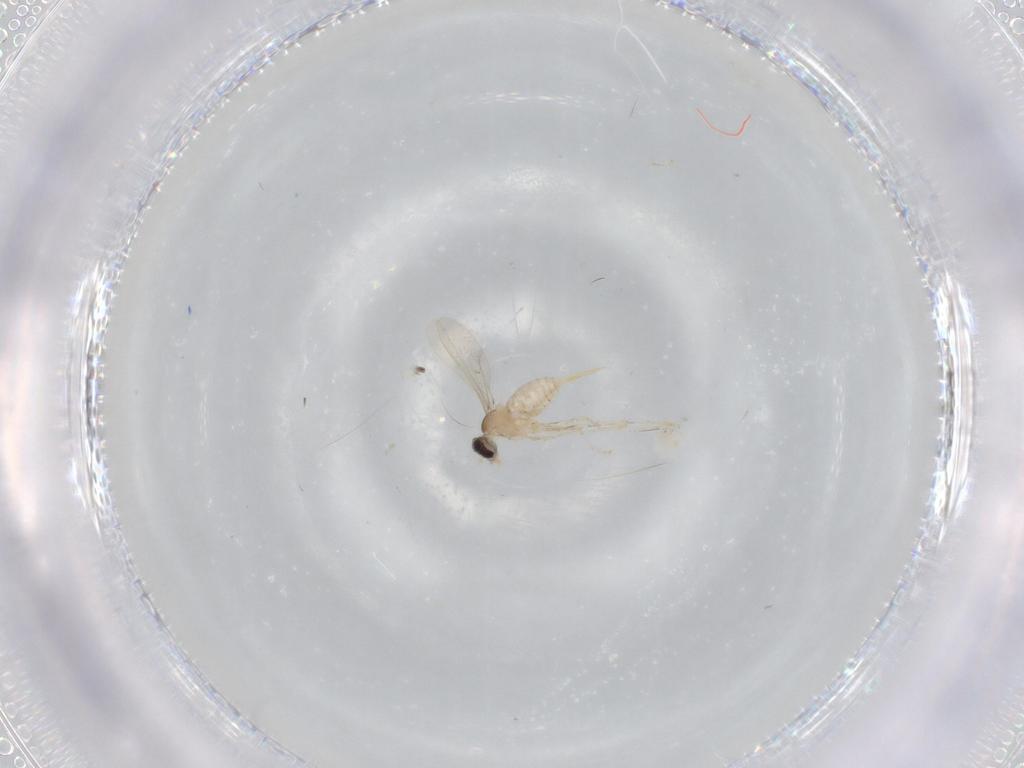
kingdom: Animalia
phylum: Arthropoda
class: Insecta
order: Diptera
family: Cecidomyiidae
